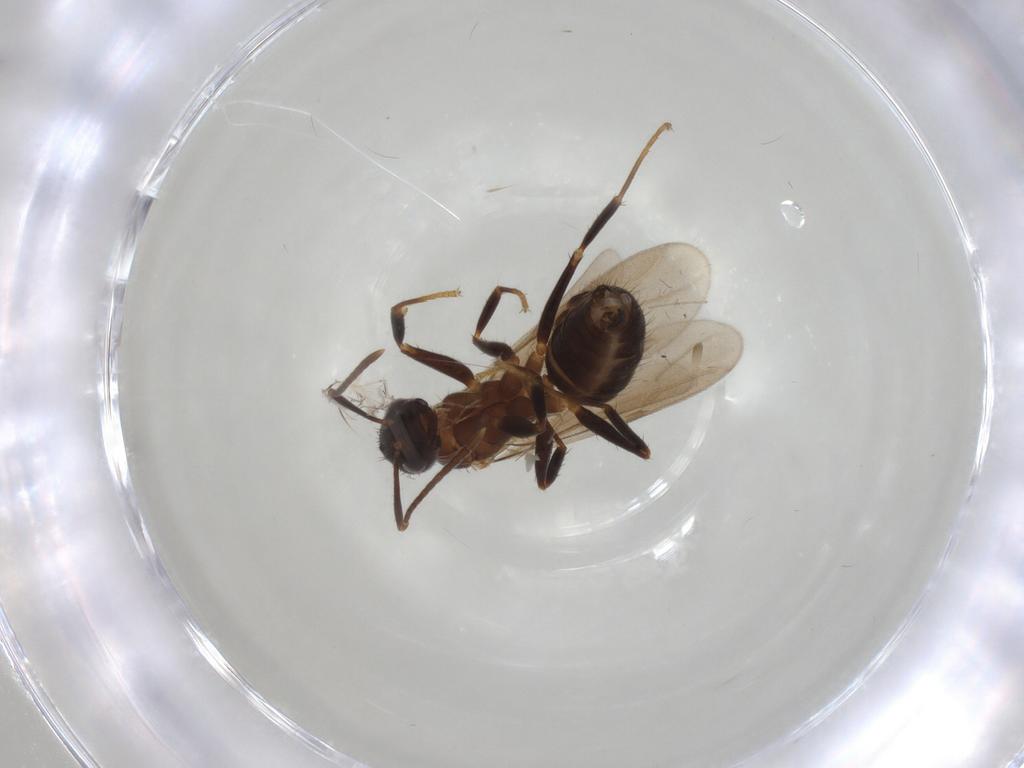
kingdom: Animalia
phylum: Arthropoda
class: Insecta
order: Hymenoptera
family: Formicidae
